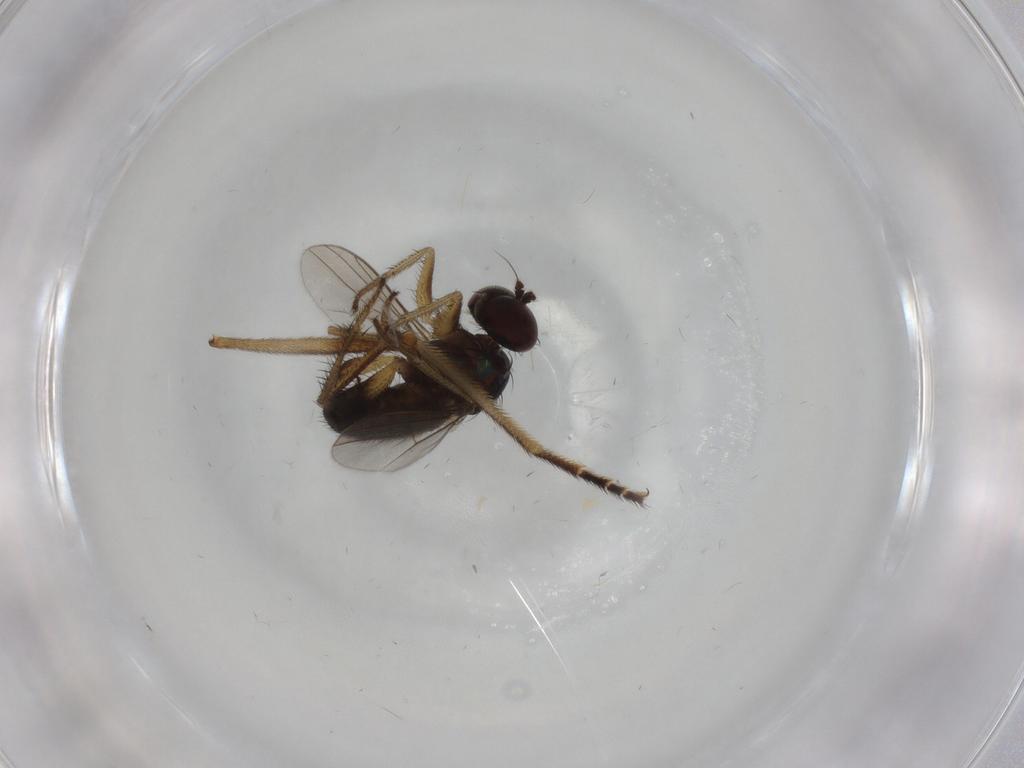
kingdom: Animalia
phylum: Arthropoda
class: Insecta
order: Diptera
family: Dolichopodidae
